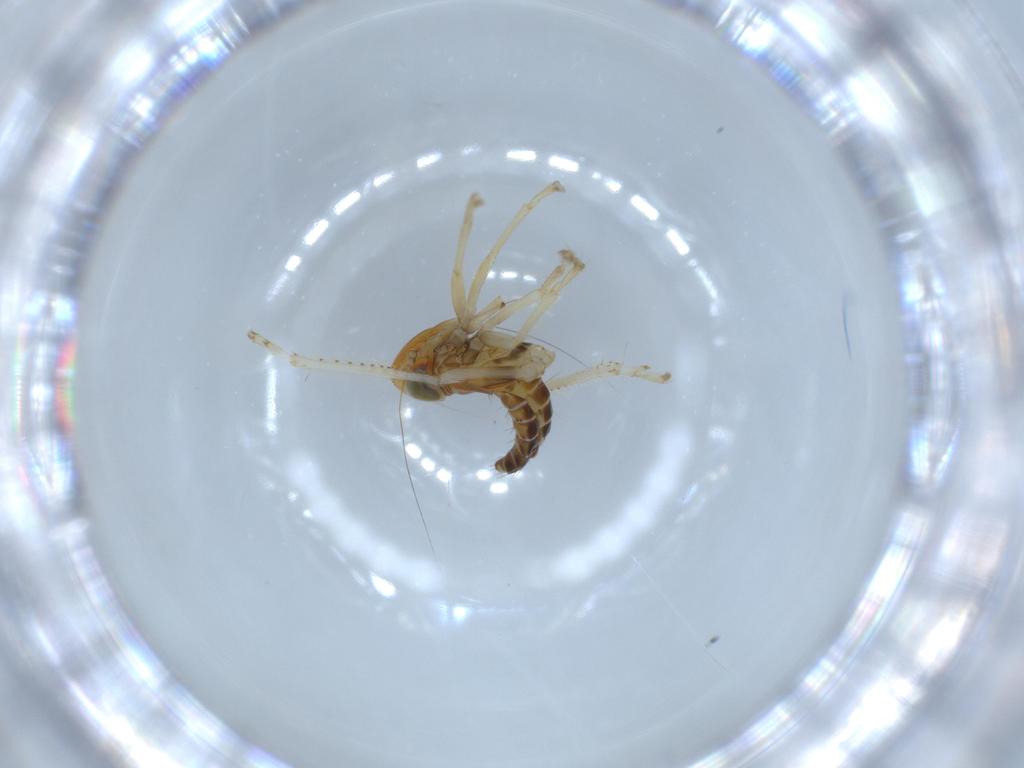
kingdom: Animalia
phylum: Arthropoda
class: Insecta
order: Hemiptera
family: Cicadellidae
